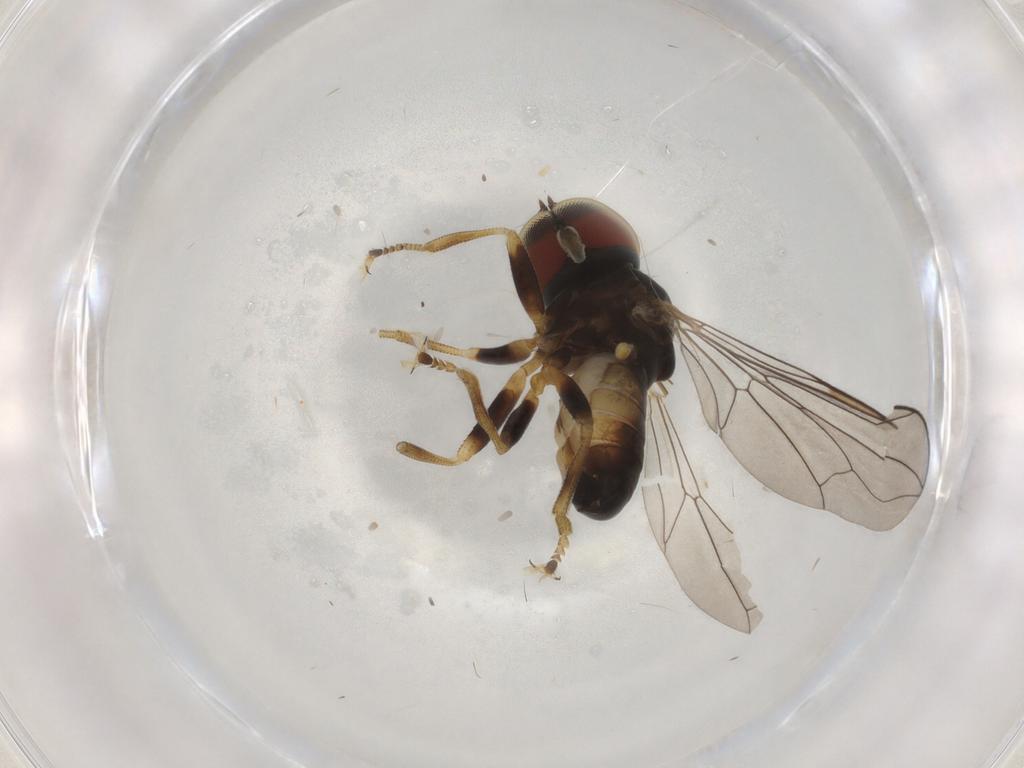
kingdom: Animalia
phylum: Arthropoda
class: Insecta
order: Diptera
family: Pipunculidae
